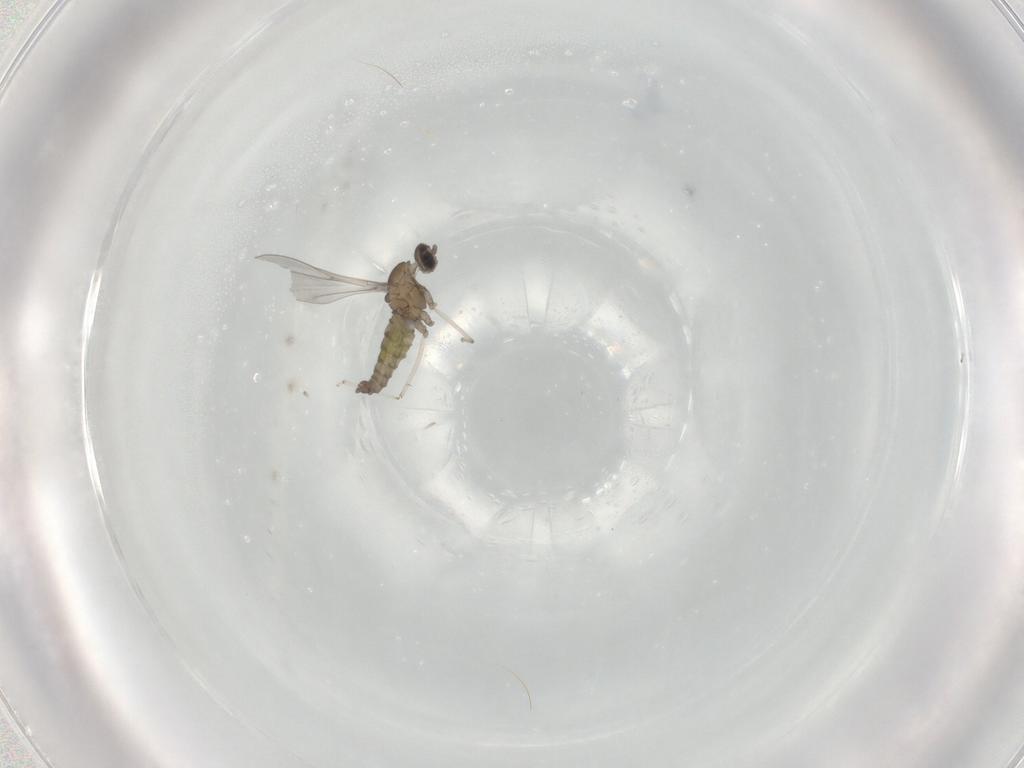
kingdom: Animalia
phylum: Arthropoda
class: Insecta
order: Diptera
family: Cecidomyiidae
